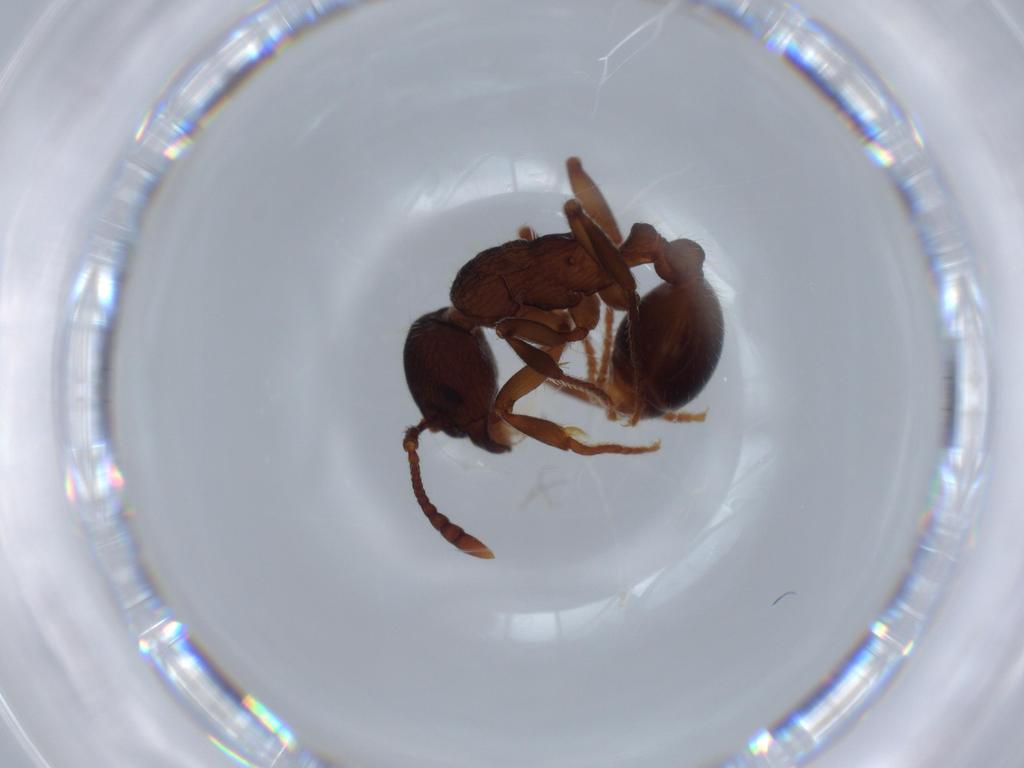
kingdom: Animalia
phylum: Arthropoda
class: Insecta
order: Hymenoptera
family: Formicidae
